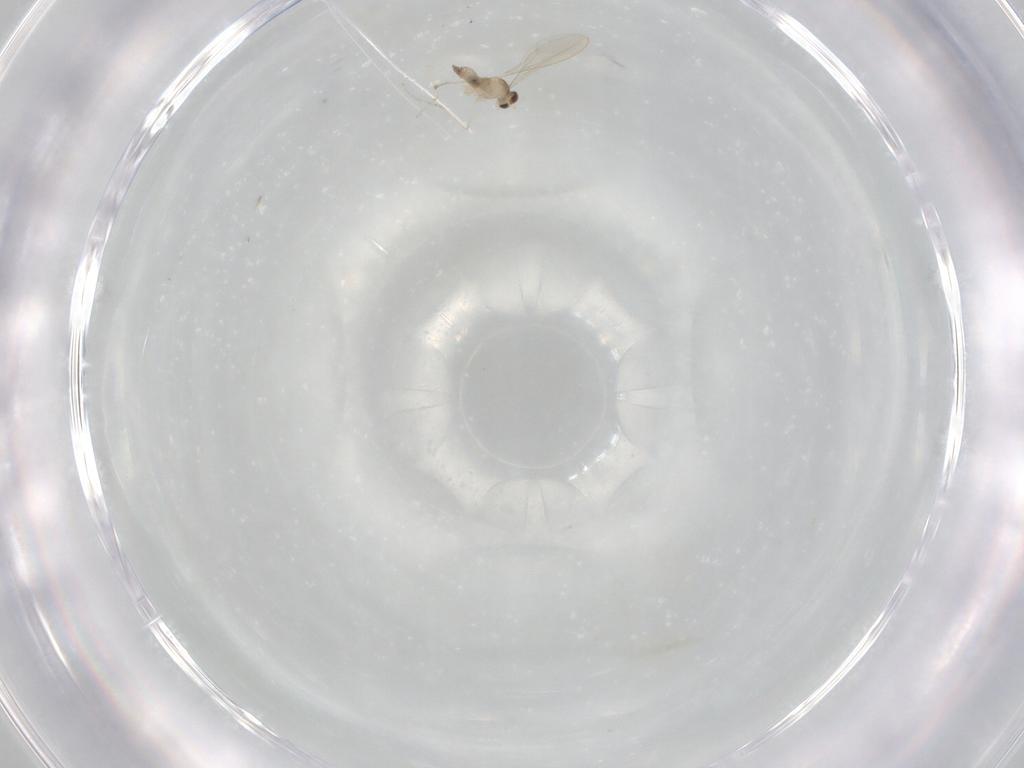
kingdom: Animalia
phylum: Arthropoda
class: Insecta
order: Diptera
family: Cecidomyiidae
